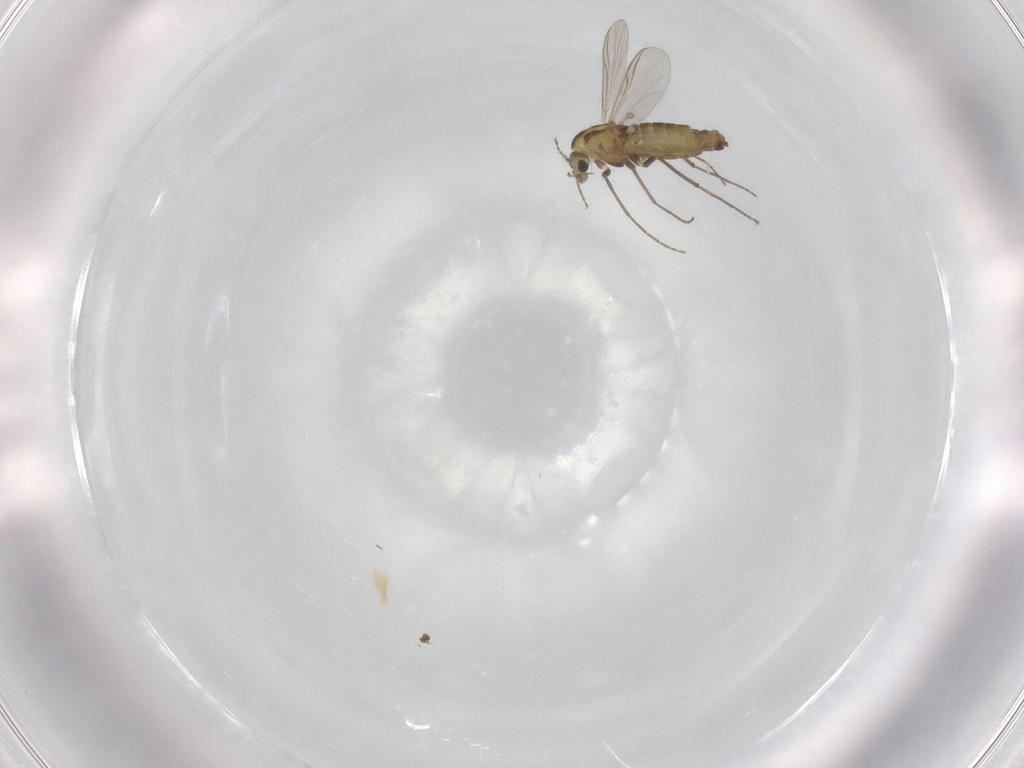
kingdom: Animalia
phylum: Arthropoda
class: Insecta
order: Diptera
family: Chironomidae
